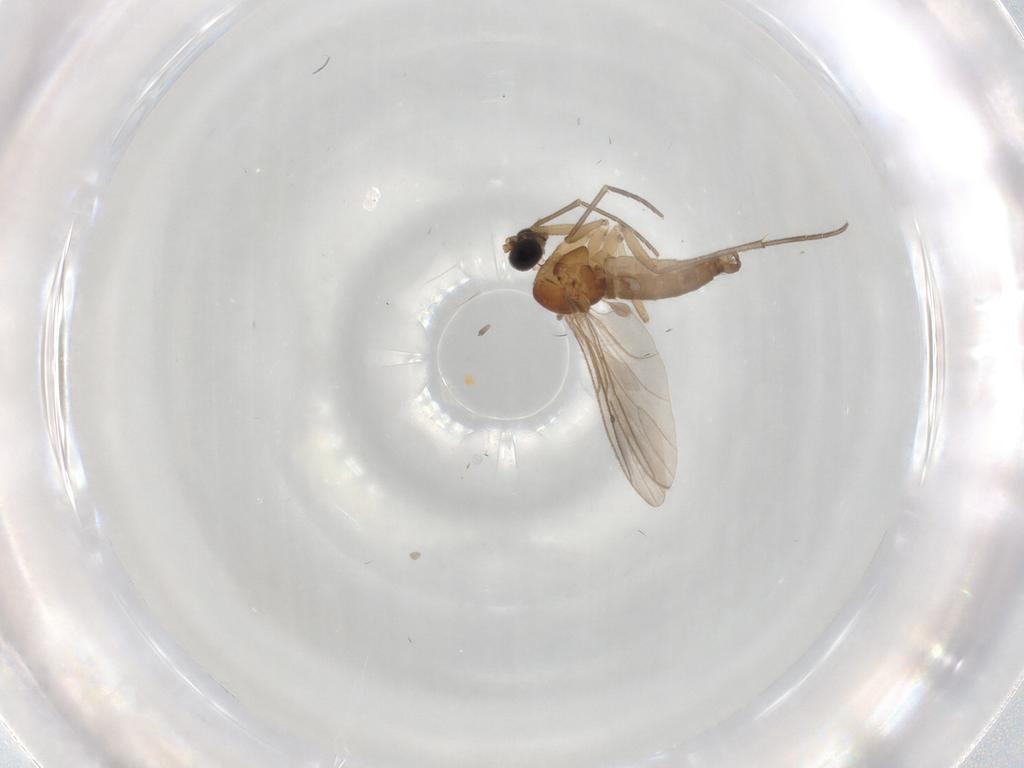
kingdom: Animalia
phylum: Arthropoda
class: Insecta
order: Diptera
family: Sciaridae
